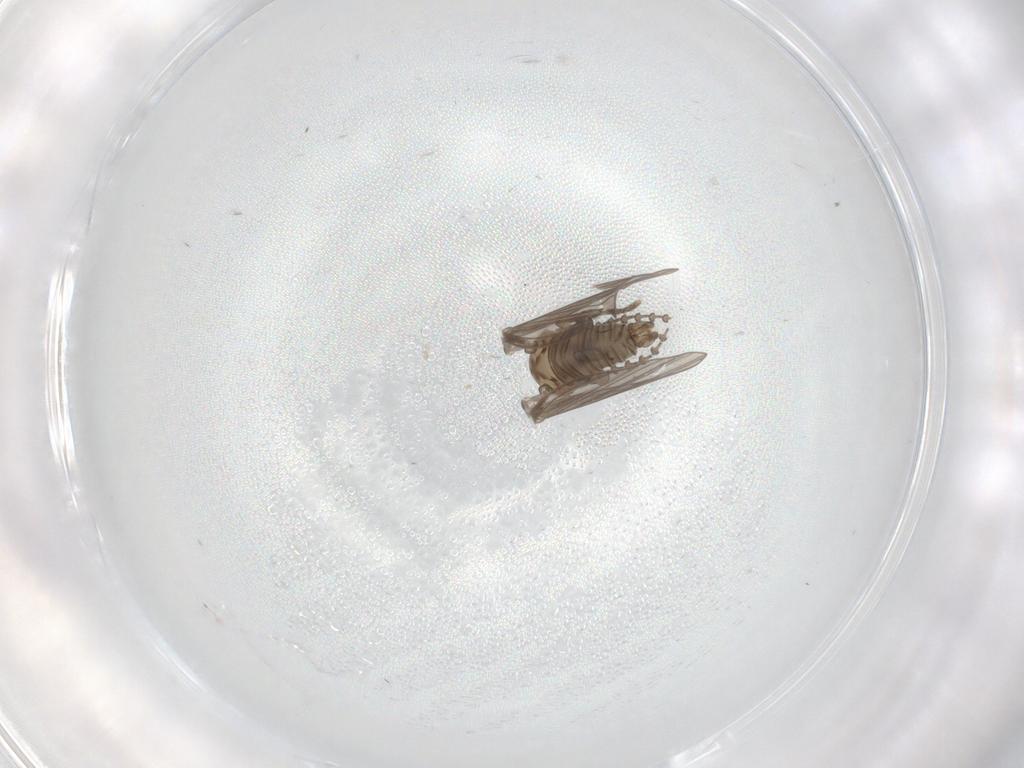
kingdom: Animalia
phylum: Arthropoda
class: Insecta
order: Diptera
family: Psychodidae
